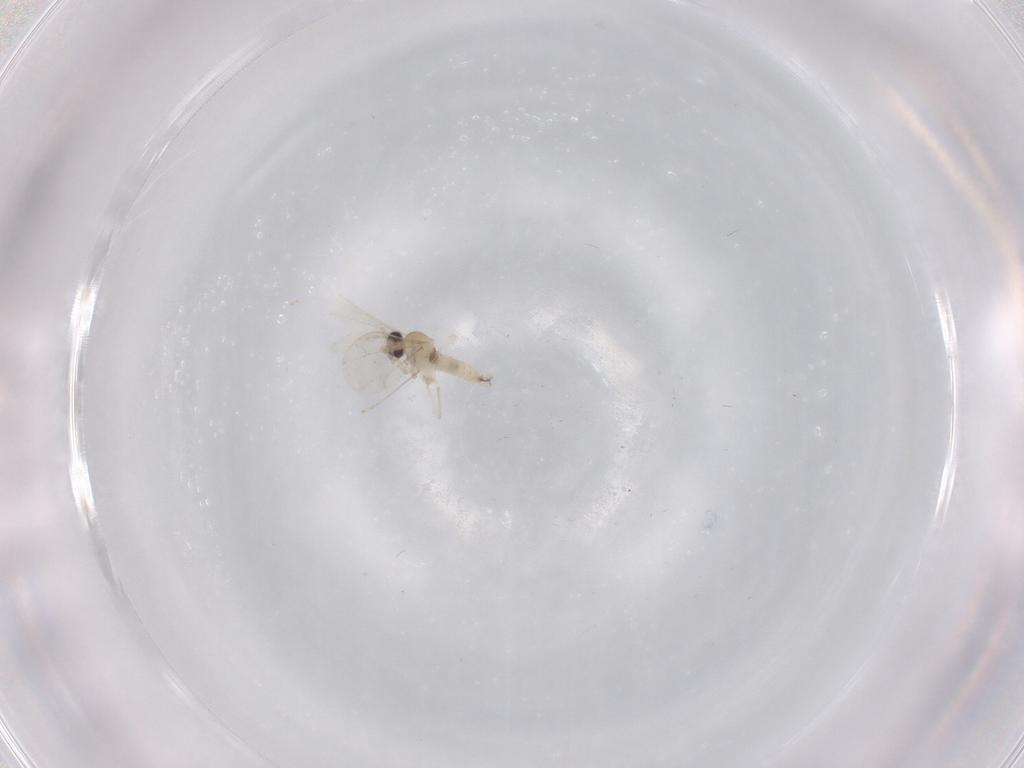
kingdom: Animalia
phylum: Arthropoda
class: Insecta
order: Diptera
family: Cecidomyiidae
